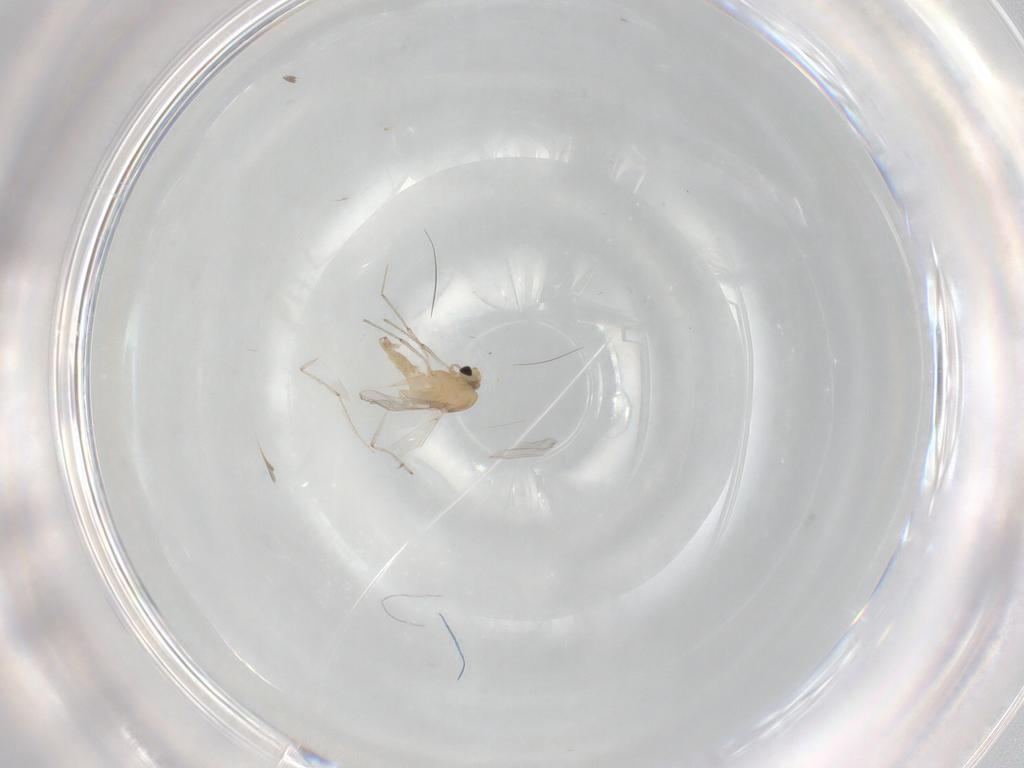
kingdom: Animalia
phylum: Arthropoda
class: Insecta
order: Diptera
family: Chironomidae
